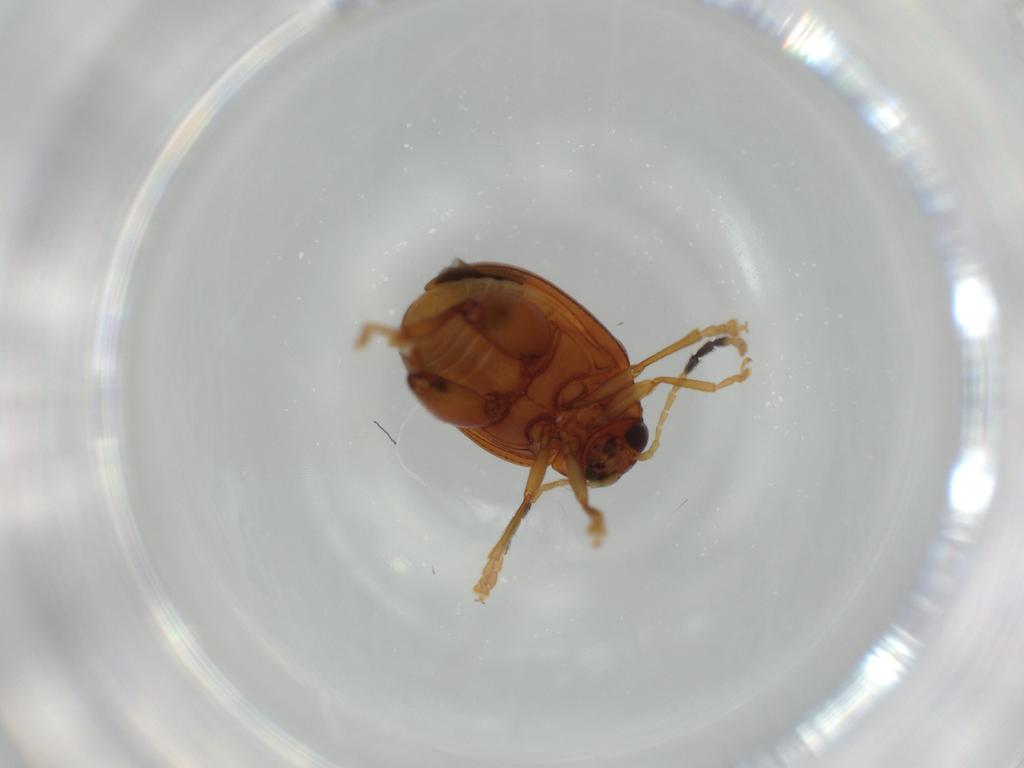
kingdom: Animalia
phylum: Arthropoda
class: Insecta
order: Coleoptera
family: Chrysomelidae
